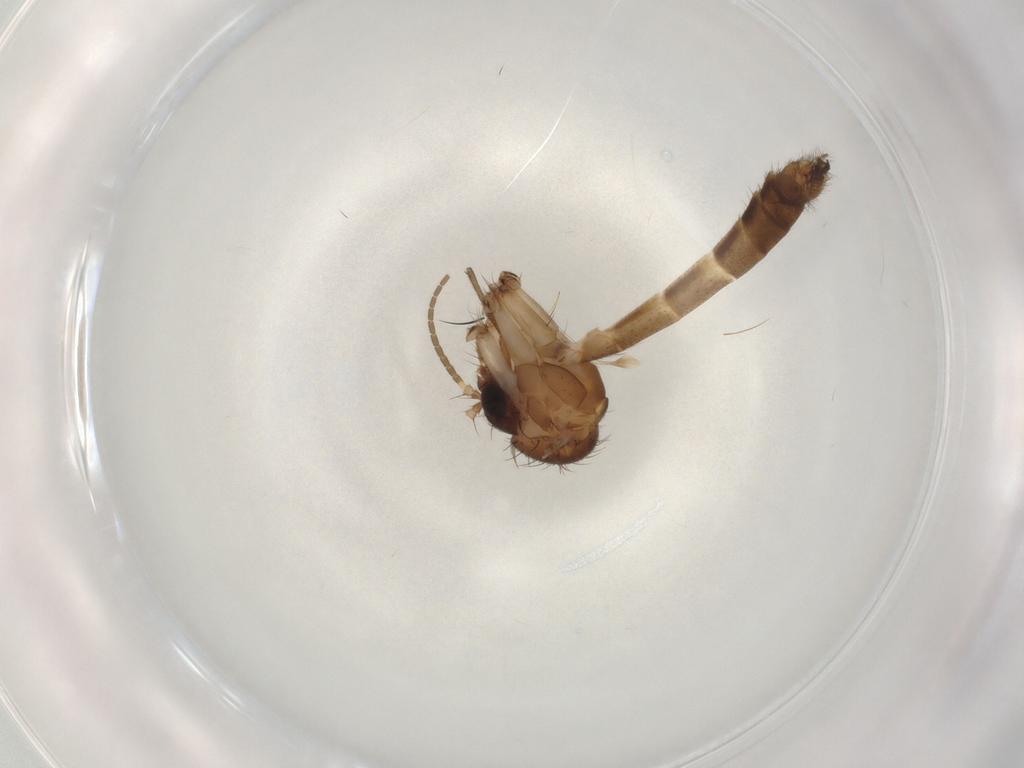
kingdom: Animalia
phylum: Arthropoda
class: Insecta
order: Diptera
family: Mycetophilidae
